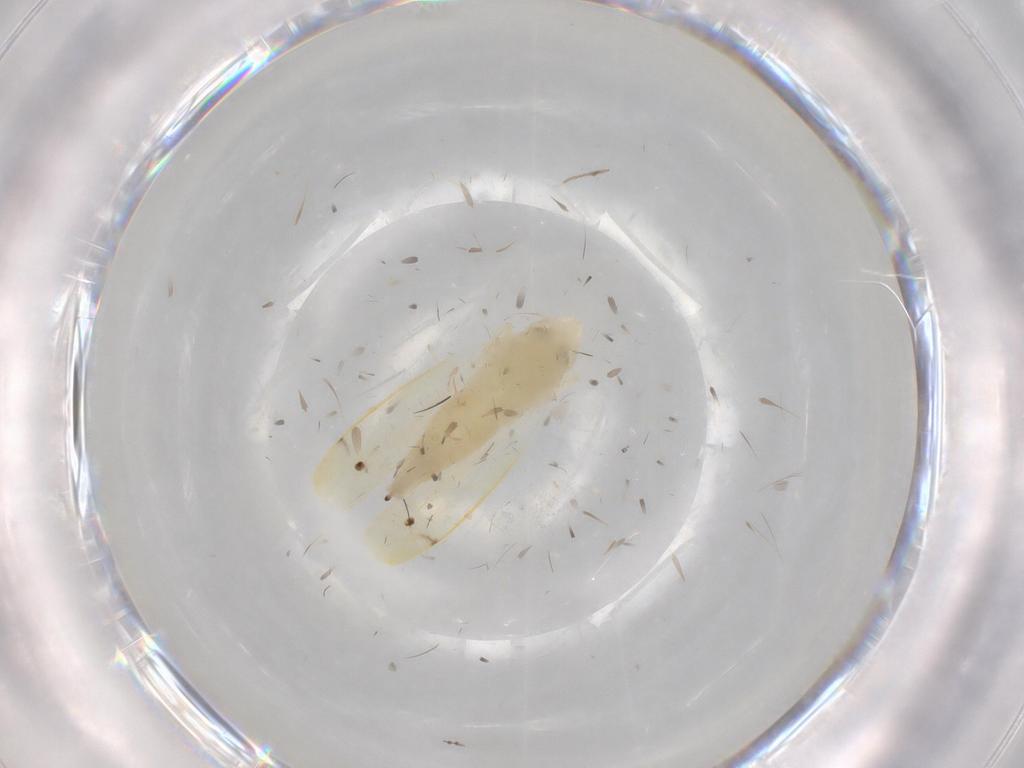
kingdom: Animalia
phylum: Arthropoda
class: Insecta
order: Hemiptera
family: Cicadellidae
